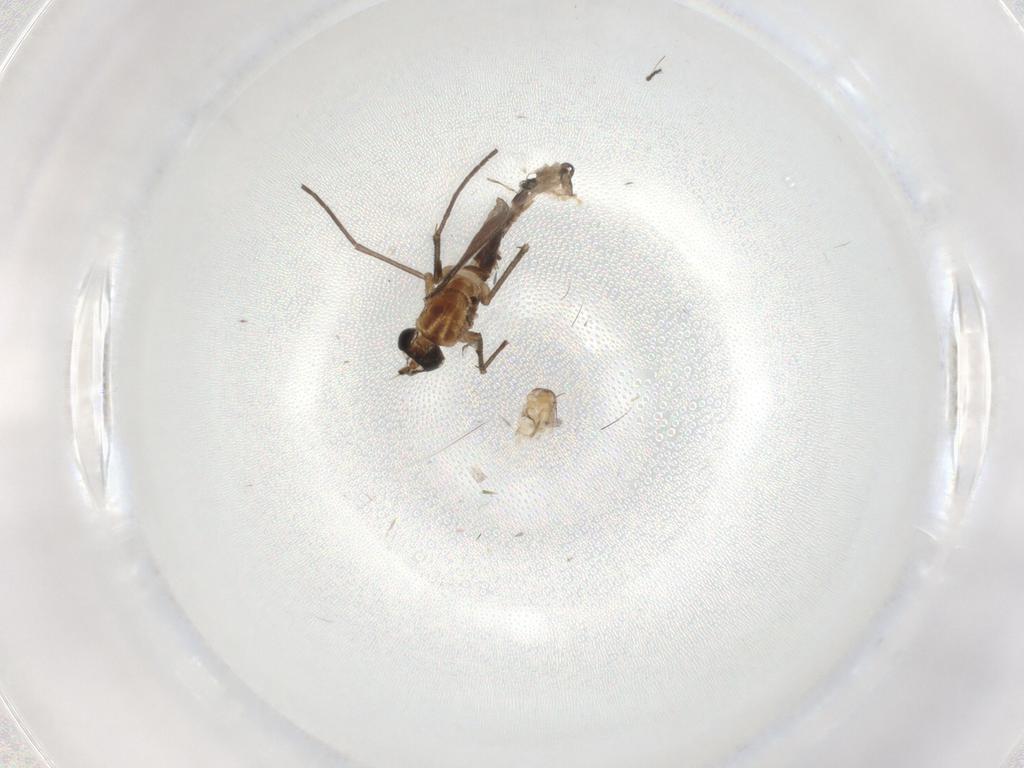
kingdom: Animalia
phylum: Arthropoda
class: Insecta
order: Diptera
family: Sciaridae
